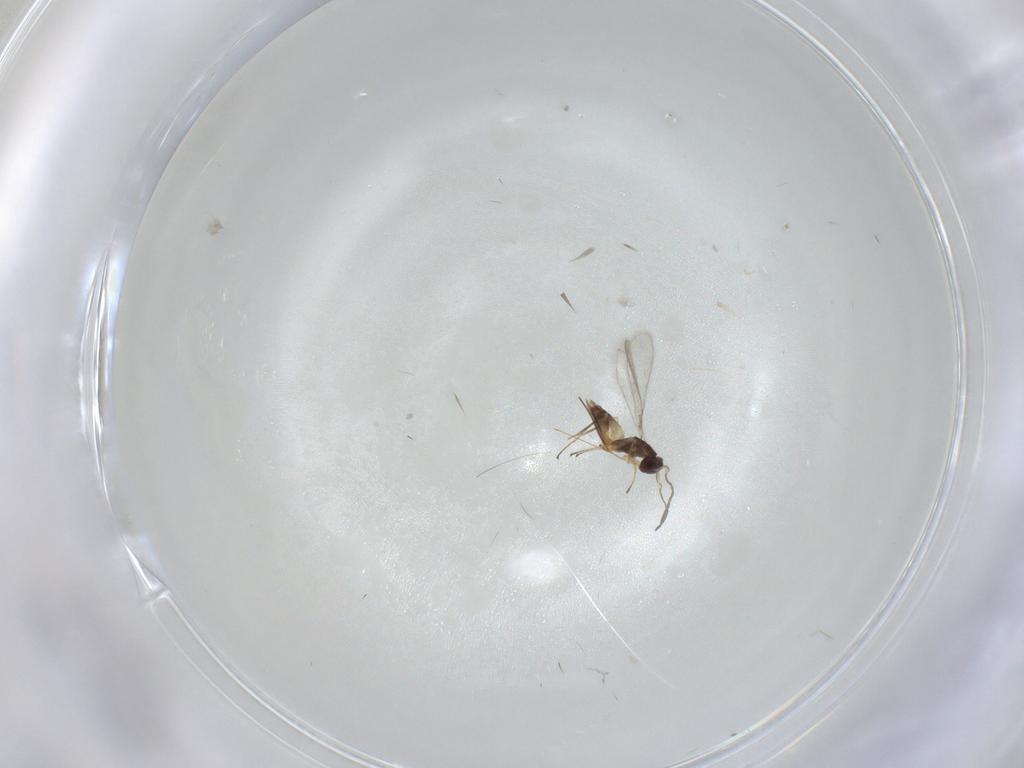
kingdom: Animalia
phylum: Arthropoda
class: Insecta
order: Hymenoptera
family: Mymaridae
